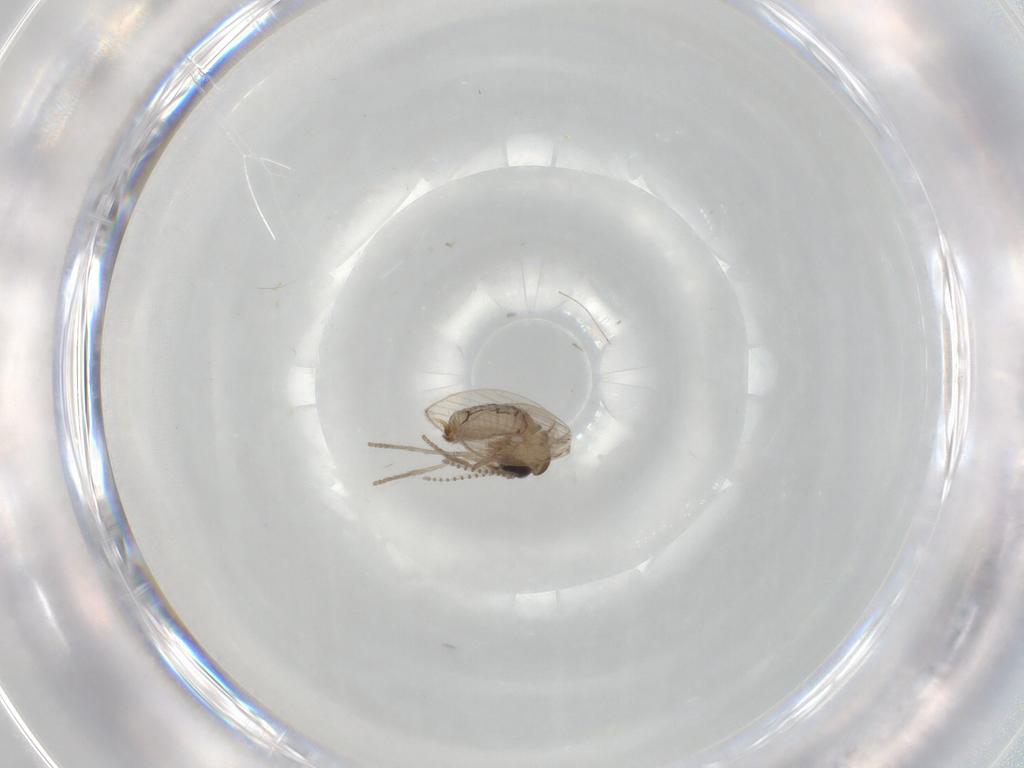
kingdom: Animalia
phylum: Arthropoda
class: Insecta
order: Diptera
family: Psychodidae
